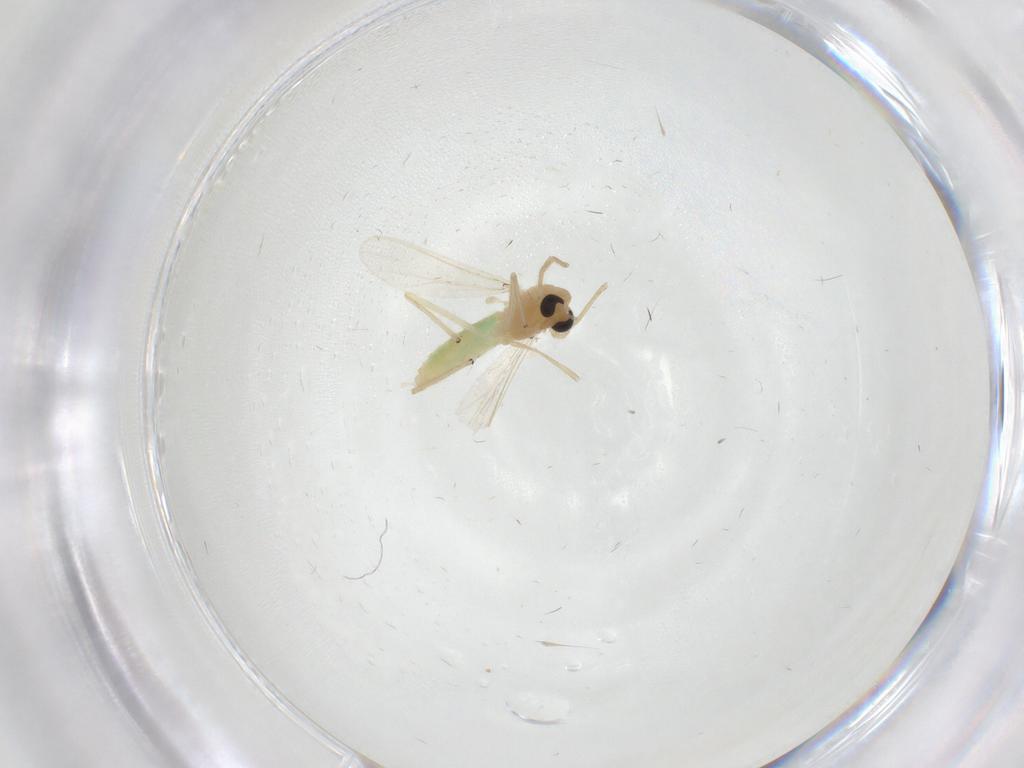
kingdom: Animalia
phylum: Arthropoda
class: Insecta
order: Diptera
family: Chironomidae
